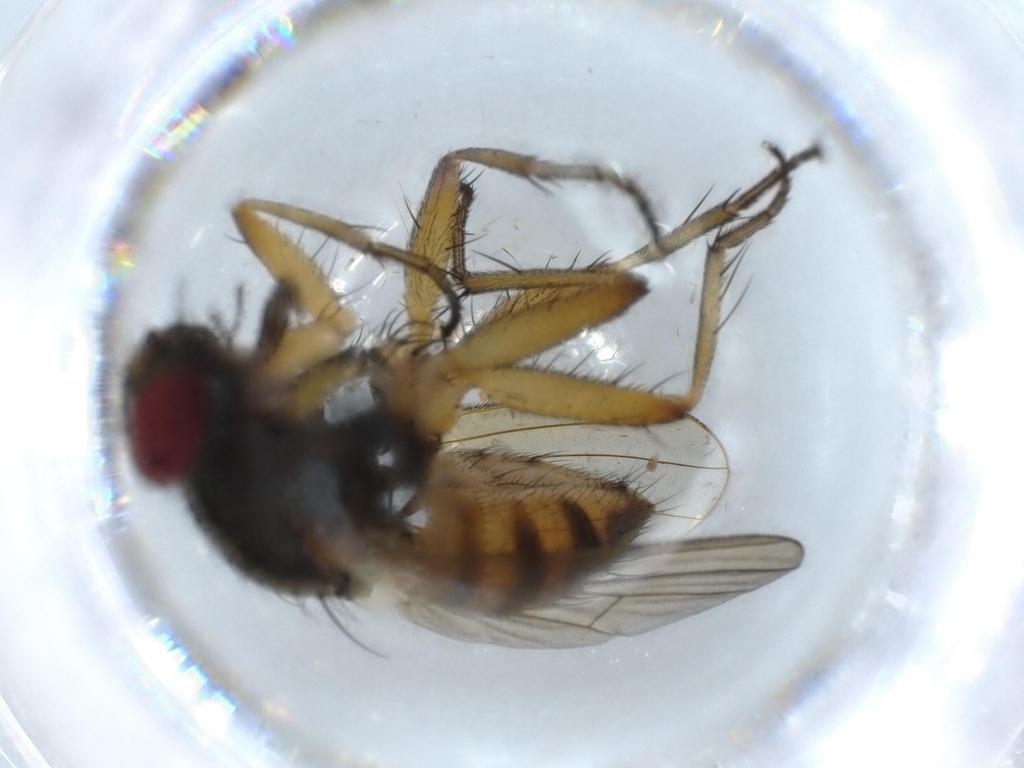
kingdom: Animalia
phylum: Arthropoda
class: Insecta
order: Diptera
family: Muscidae
